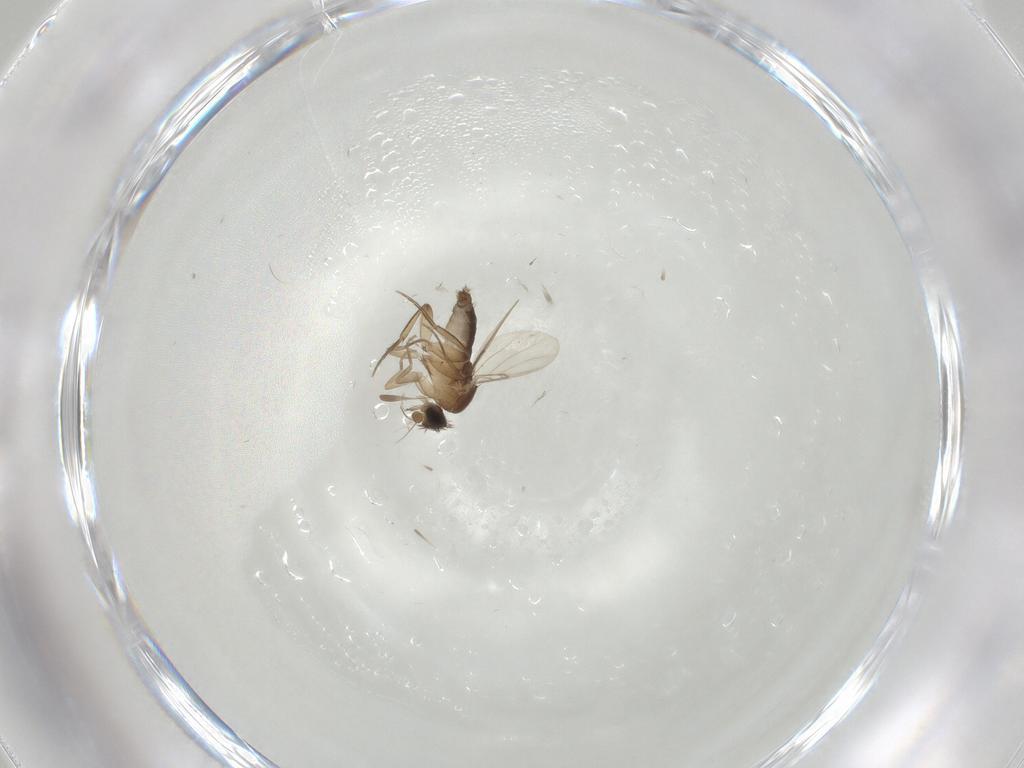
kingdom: Animalia
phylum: Arthropoda
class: Insecta
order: Diptera
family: Phoridae
